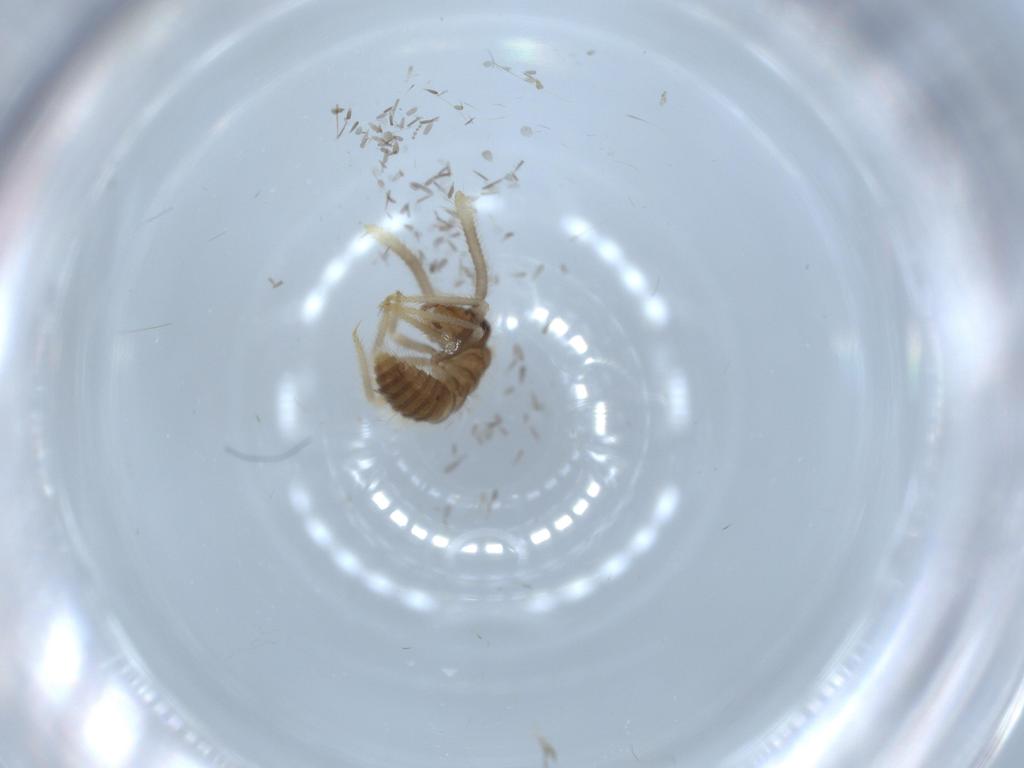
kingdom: Animalia
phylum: Arthropoda
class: Insecta
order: Coleoptera
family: Staphylinidae
